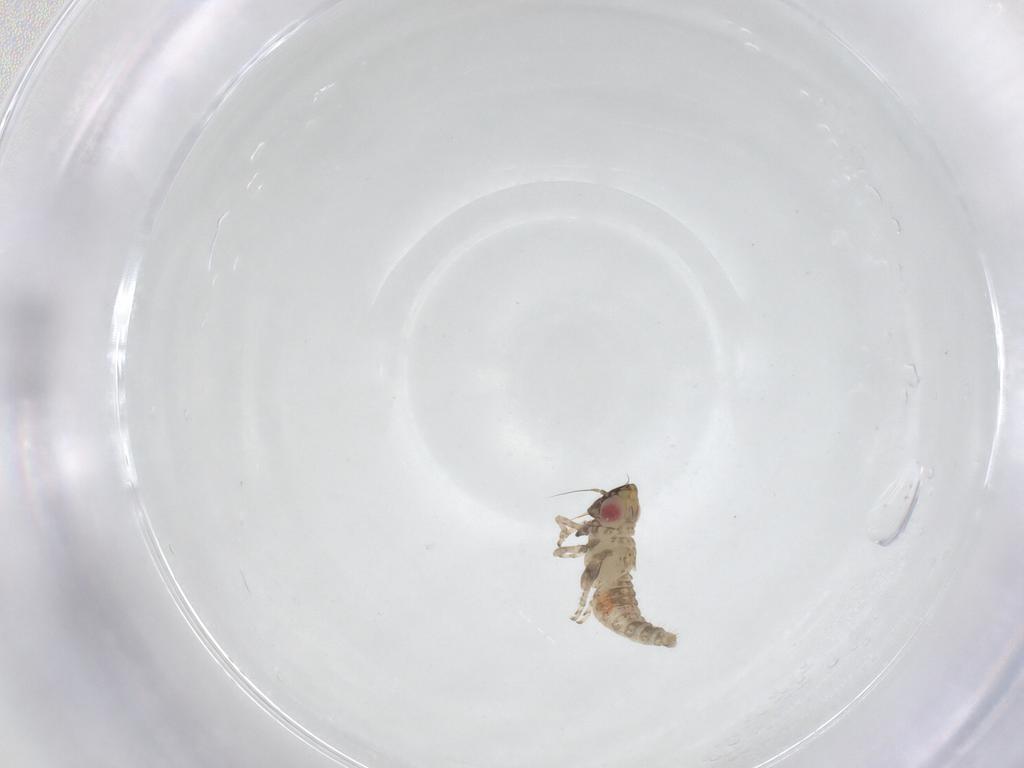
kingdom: Animalia
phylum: Arthropoda
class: Insecta
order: Hemiptera
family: Cicadellidae
